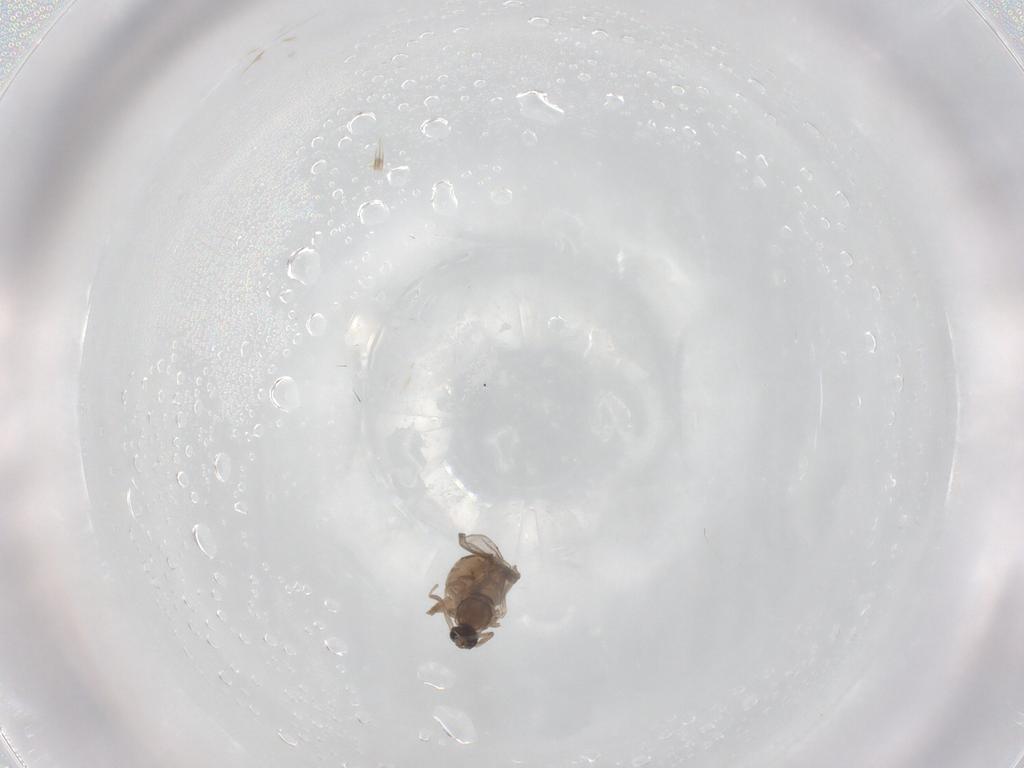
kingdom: Animalia
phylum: Arthropoda
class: Insecta
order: Diptera
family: Cecidomyiidae
